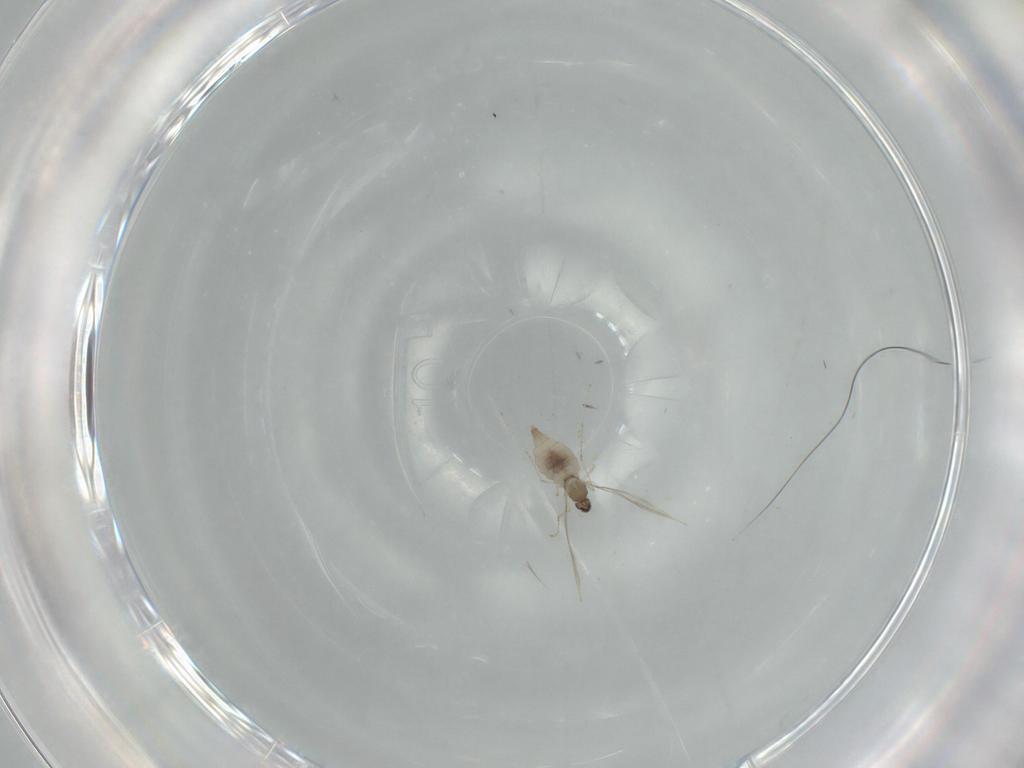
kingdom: Animalia
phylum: Arthropoda
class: Insecta
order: Diptera
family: Cecidomyiidae
